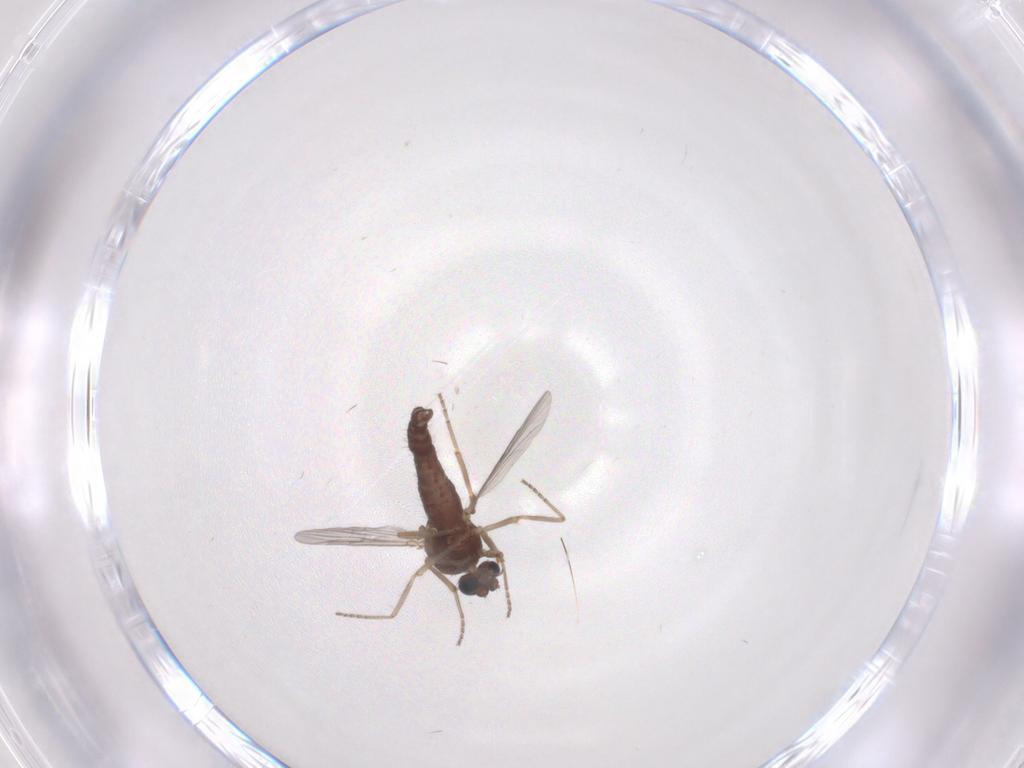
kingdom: Animalia
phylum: Arthropoda
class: Insecta
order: Diptera
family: Ceratopogonidae
